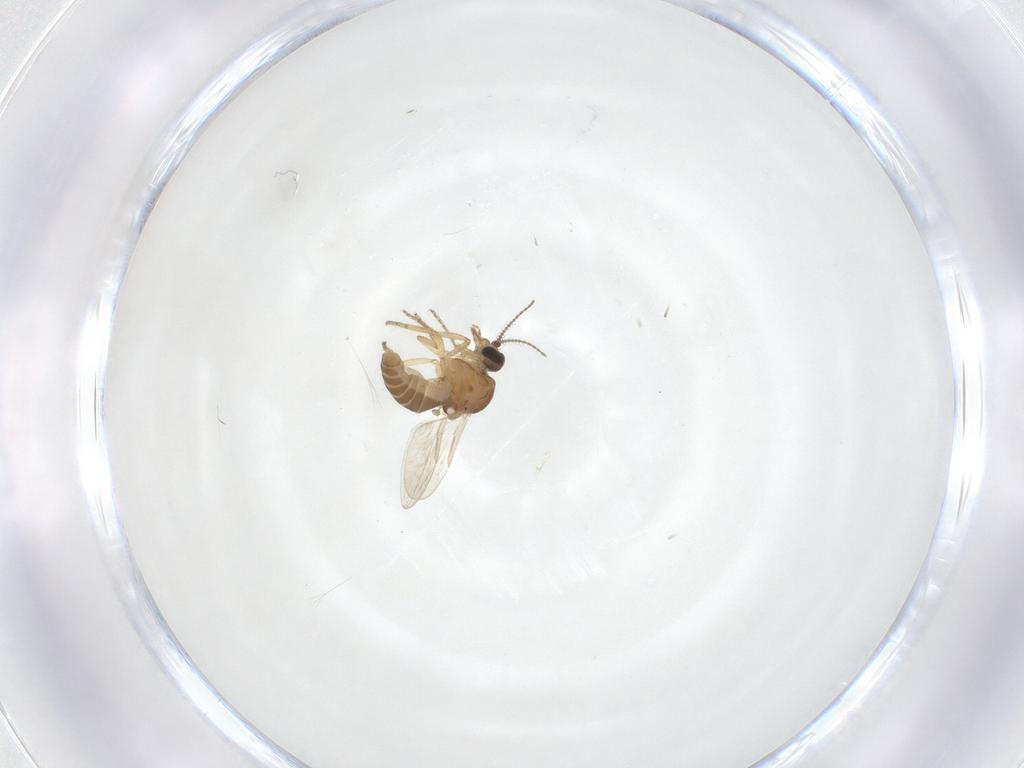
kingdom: Animalia
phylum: Arthropoda
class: Insecta
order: Diptera
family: Ceratopogonidae
